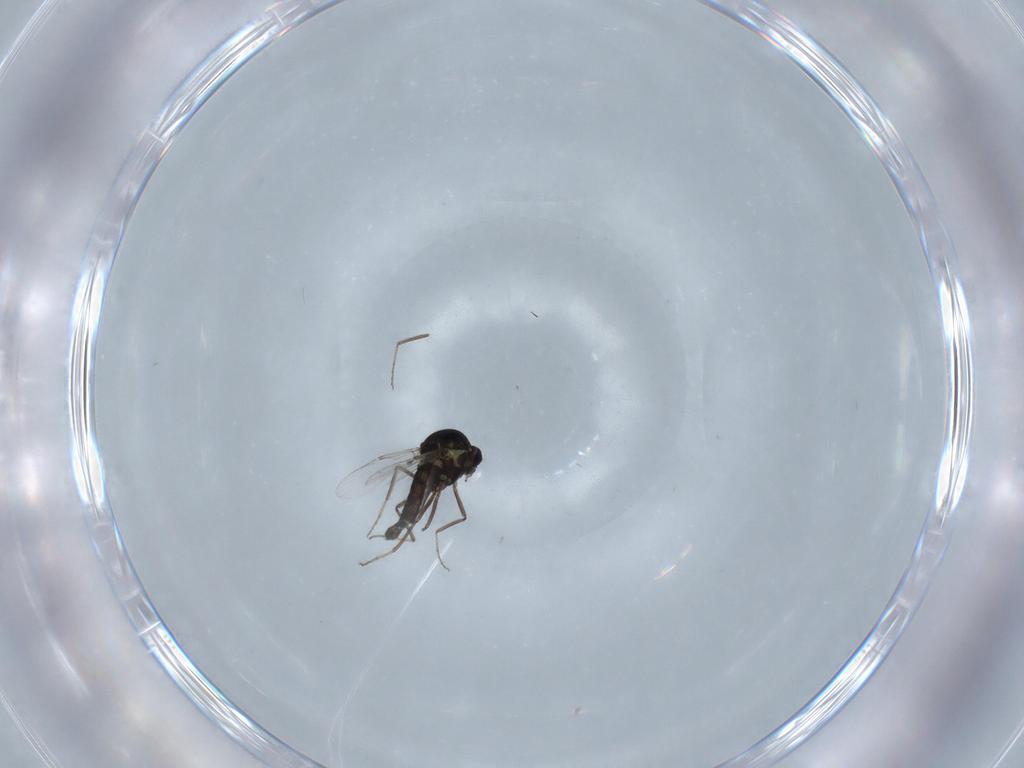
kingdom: Animalia
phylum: Arthropoda
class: Insecta
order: Diptera
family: Ceratopogonidae
